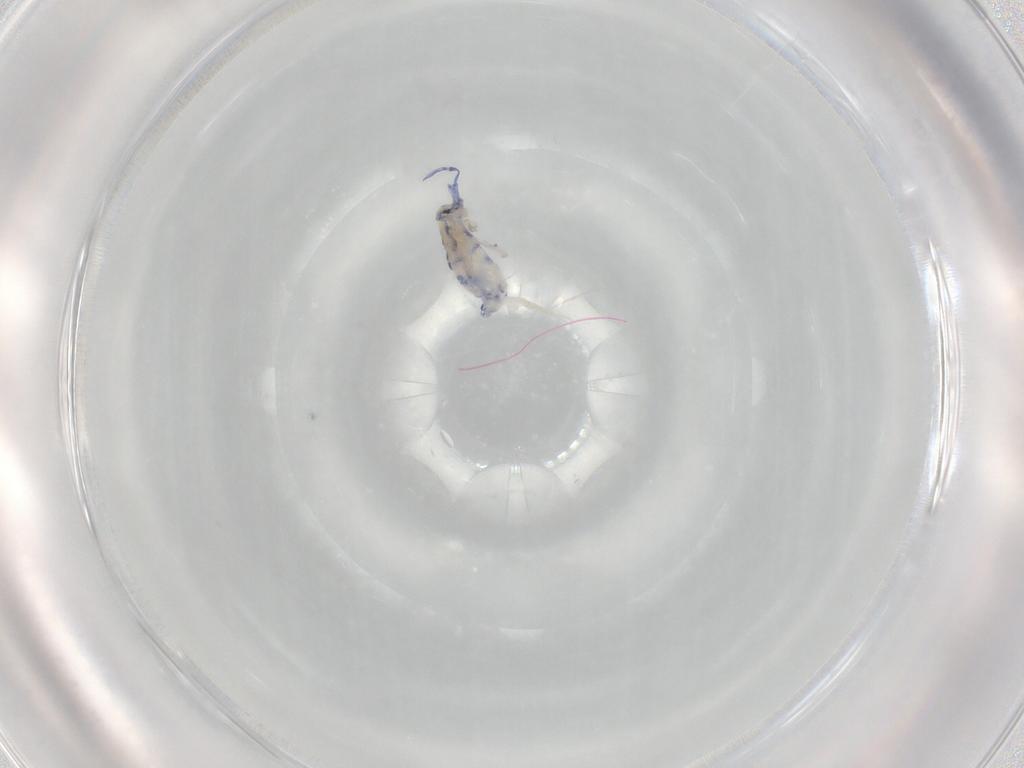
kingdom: Animalia
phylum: Arthropoda
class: Collembola
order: Entomobryomorpha
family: Entomobryidae
